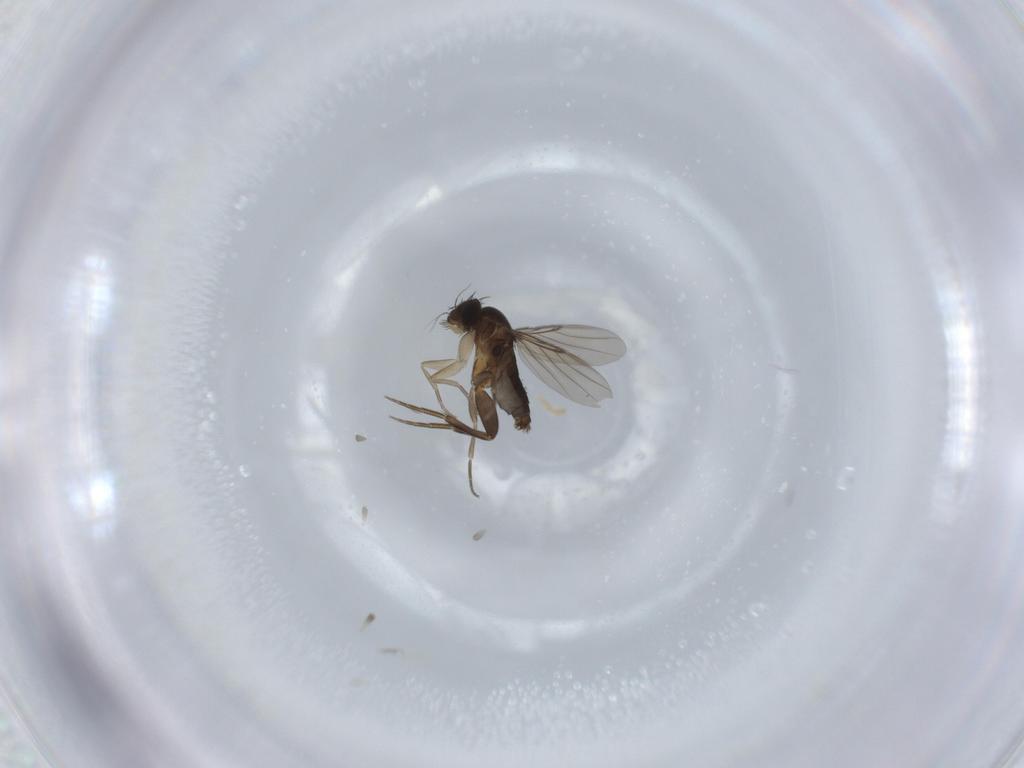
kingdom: Animalia
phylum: Arthropoda
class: Insecta
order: Diptera
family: Phoridae
